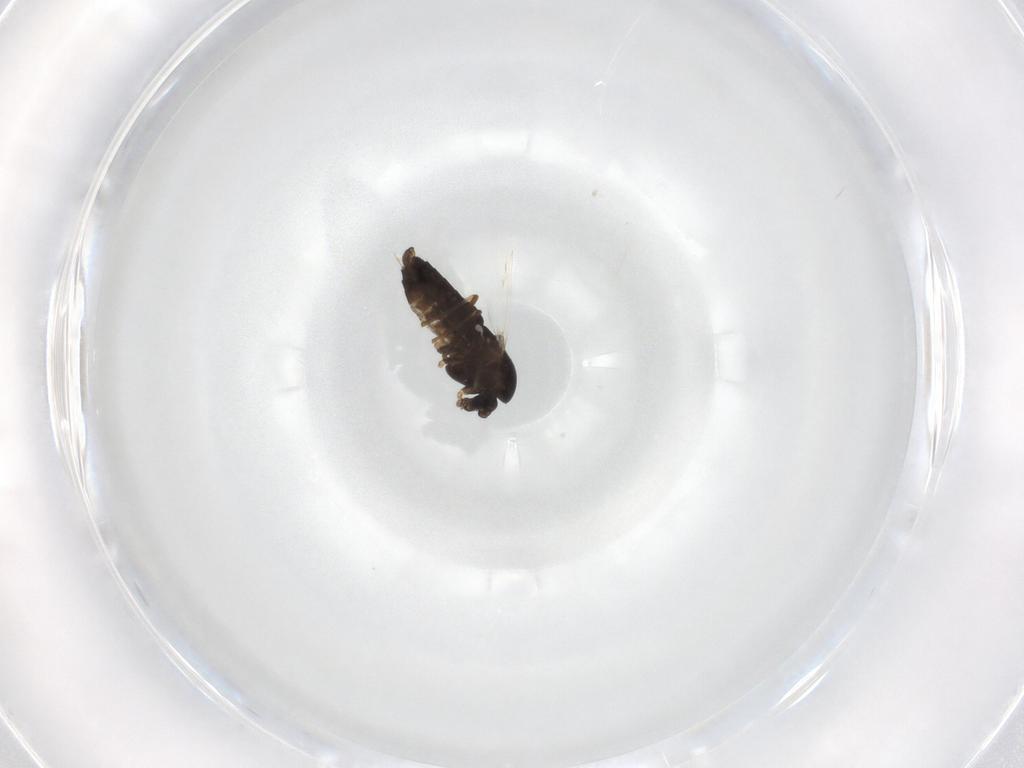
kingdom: Animalia
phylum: Arthropoda
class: Insecta
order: Diptera
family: Chironomidae
